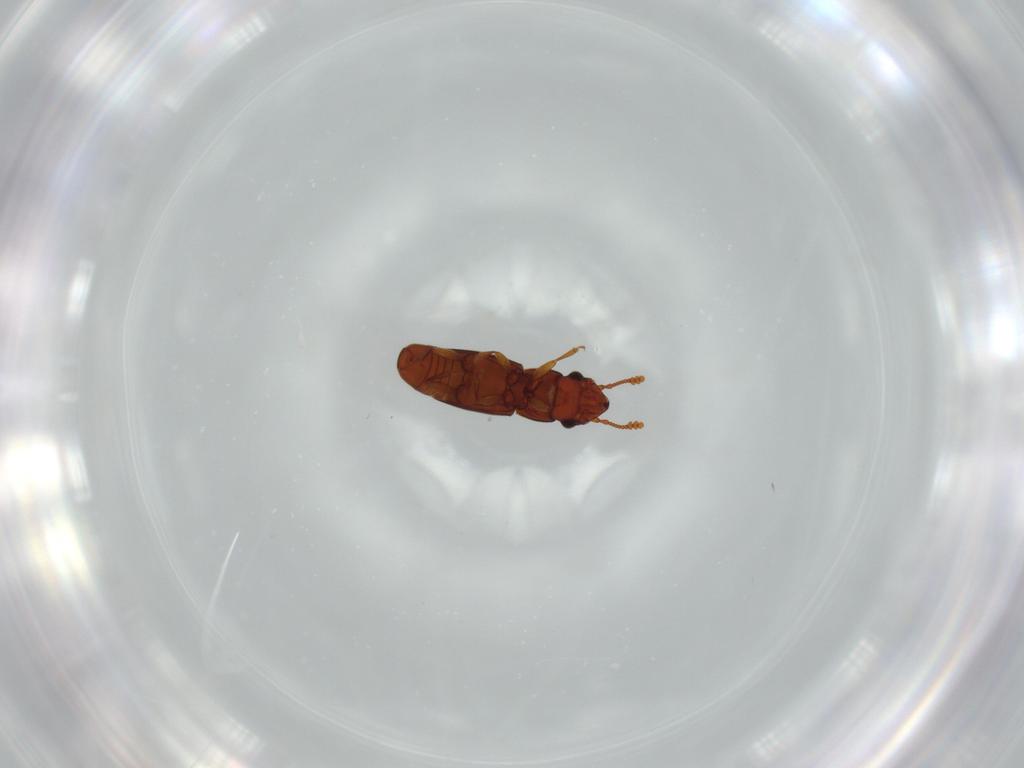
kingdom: Animalia
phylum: Arthropoda
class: Insecta
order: Coleoptera
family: Smicripidae
